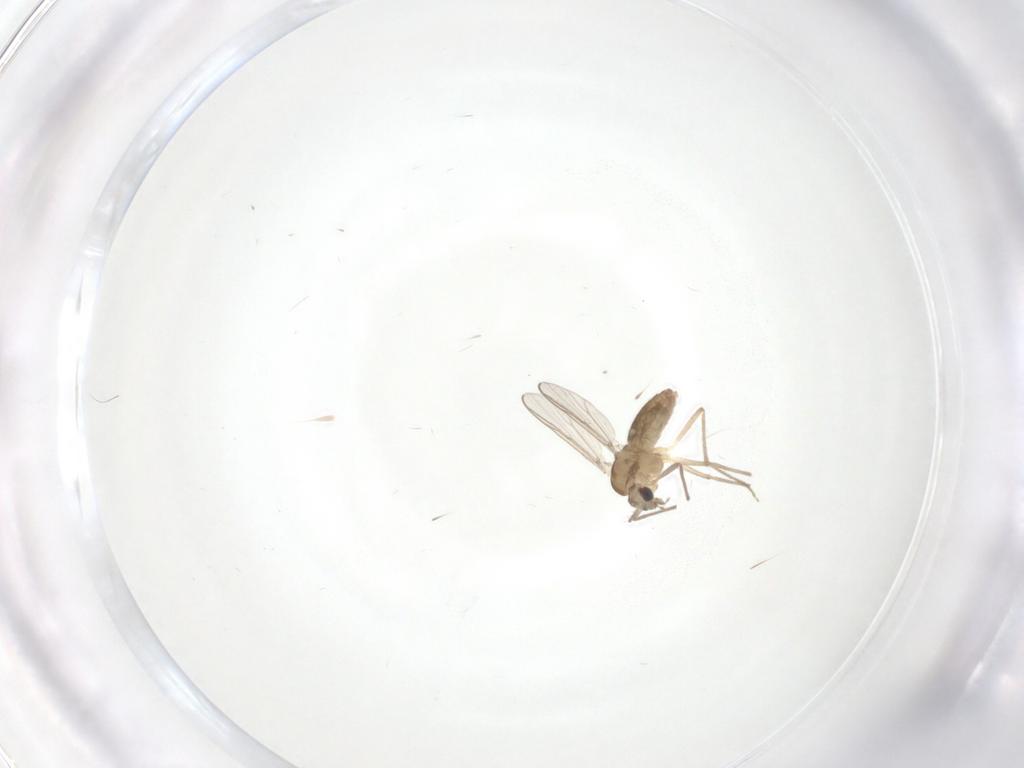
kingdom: Animalia
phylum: Arthropoda
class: Insecta
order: Diptera
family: Chironomidae
